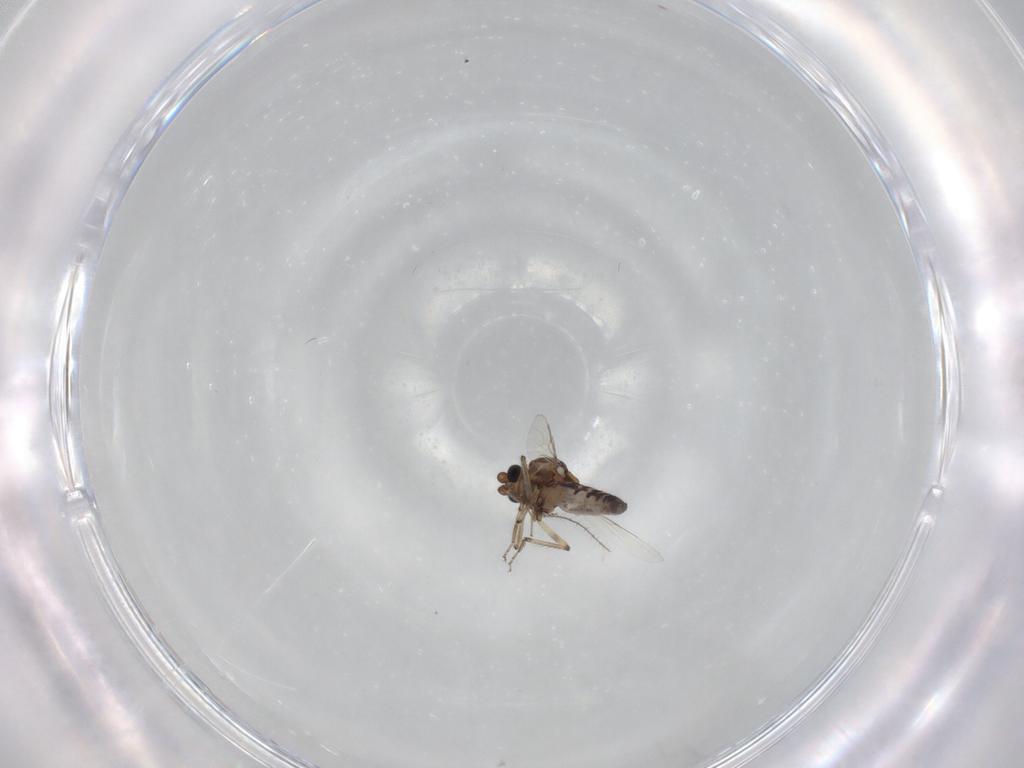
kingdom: Animalia
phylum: Arthropoda
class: Insecta
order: Diptera
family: Ceratopogonidae
